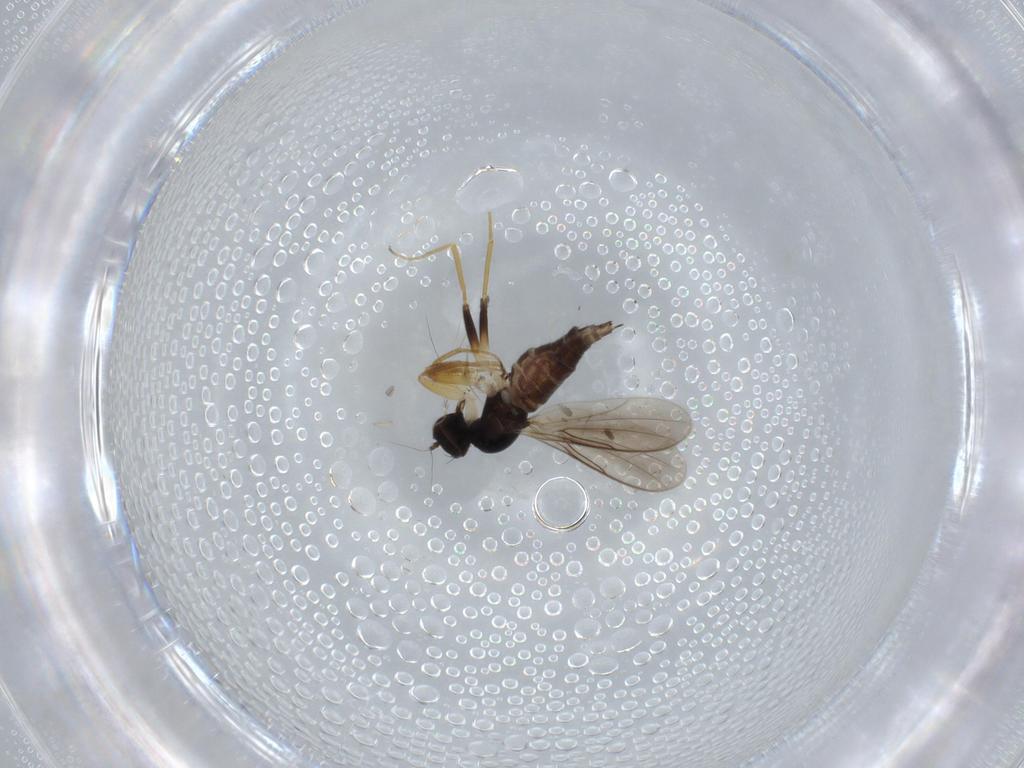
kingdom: Animalia
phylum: Arthropoda
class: Insecta
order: Diptera
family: Hybotidae
